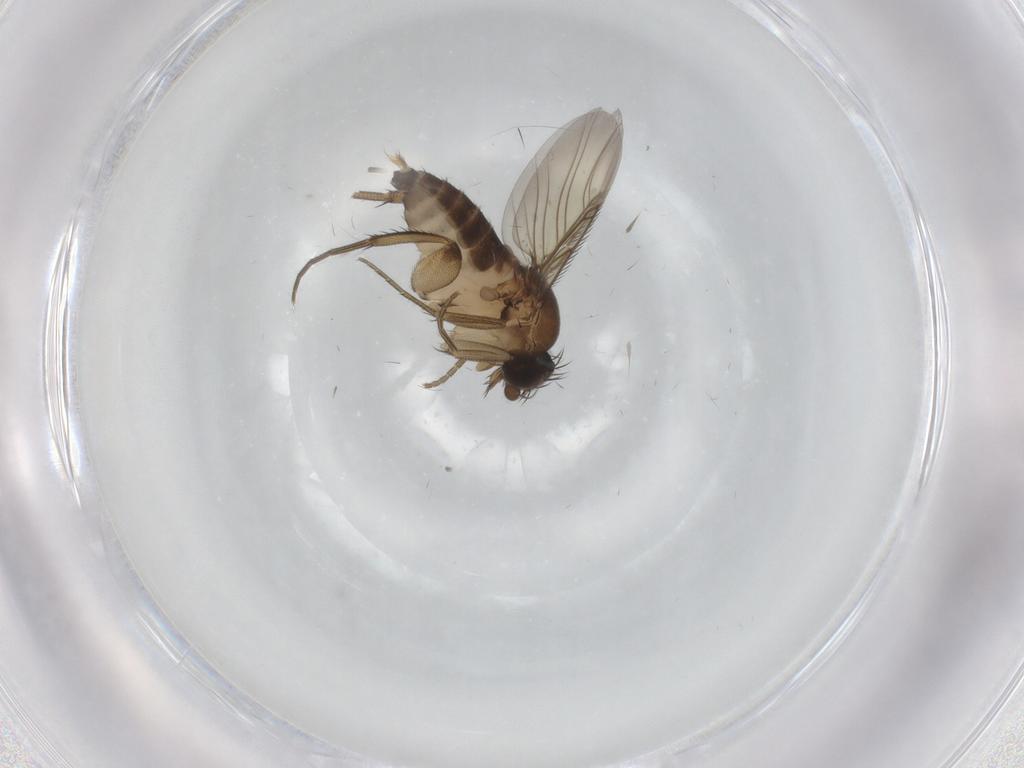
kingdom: Animalia
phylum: Arthropoda
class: Insecta
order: Diptera
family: Phoridae
